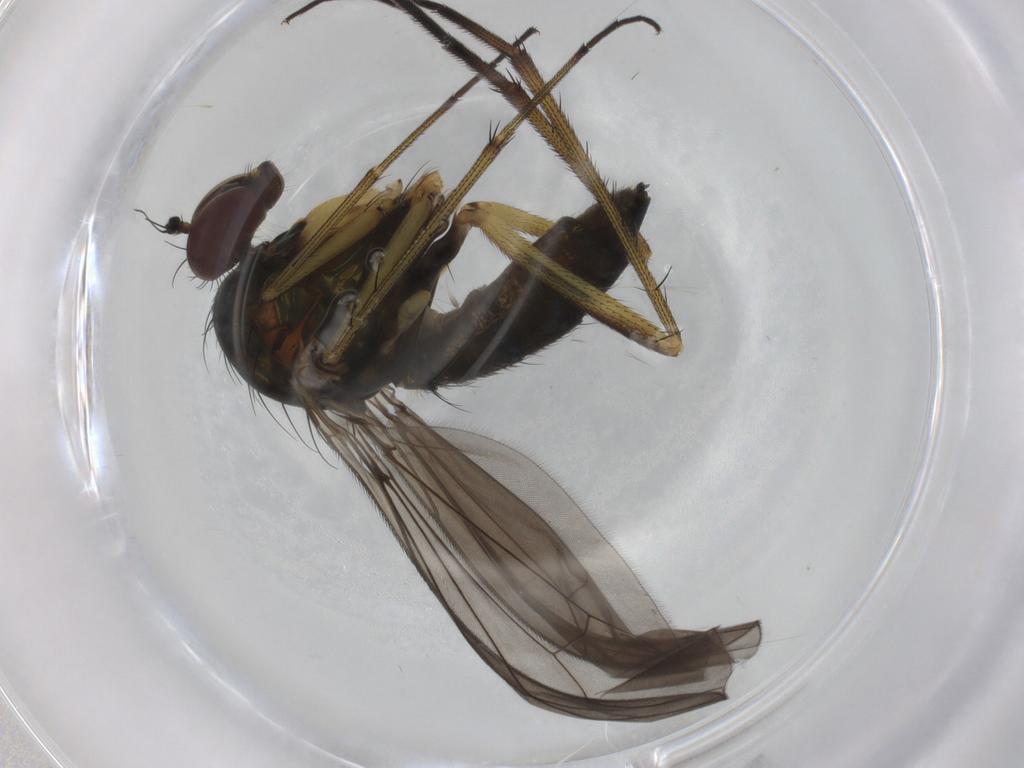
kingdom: Animalia
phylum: Arthropoda
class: Insecta
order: Diptera
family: Dolichopodidae
